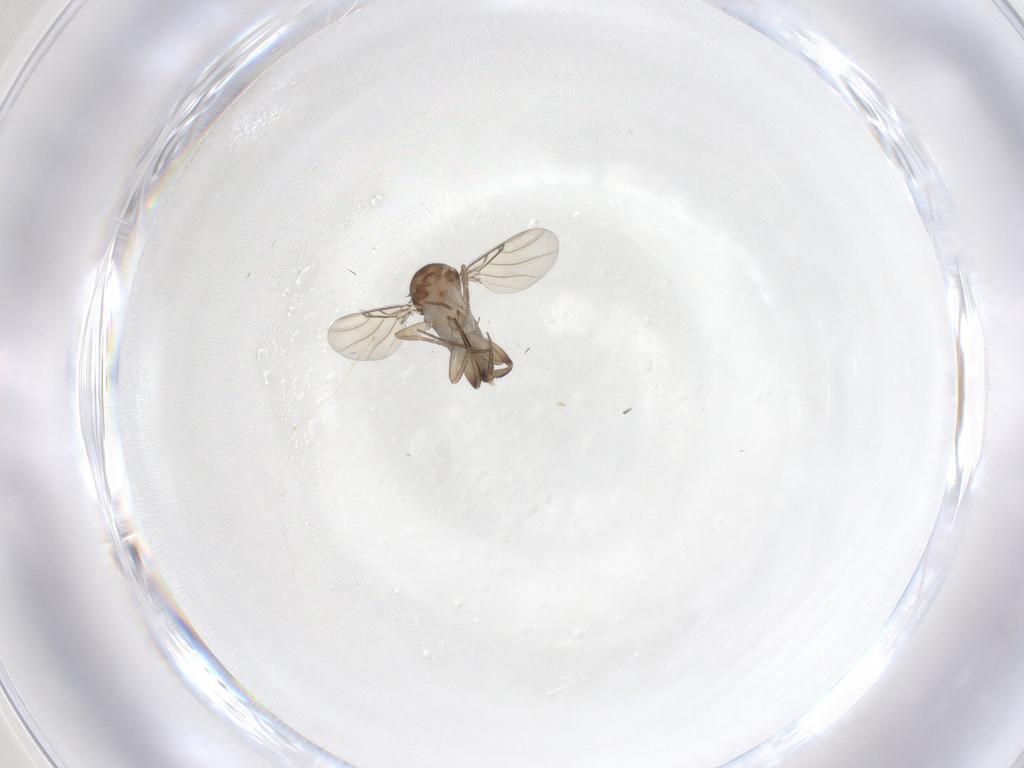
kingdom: Animalia
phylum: Arthropoda
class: Insecta
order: Diptera
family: Phoridae
